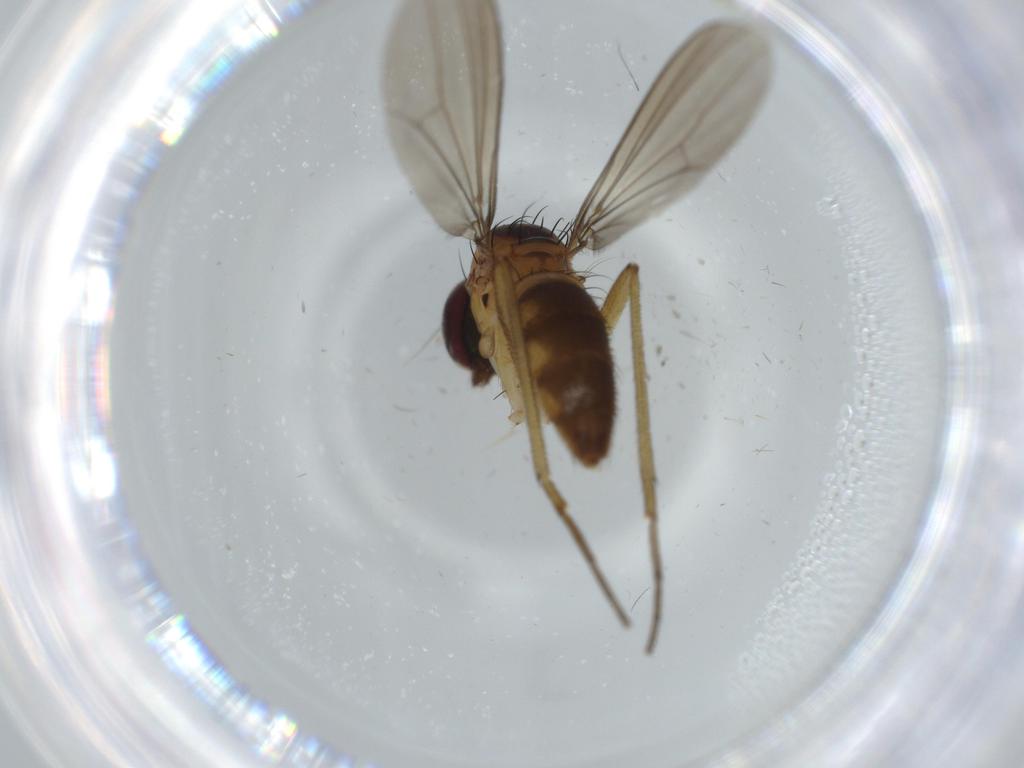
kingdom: Animalia
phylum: Arthropoda
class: Insecta
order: Diptera
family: Dolichopodidae
